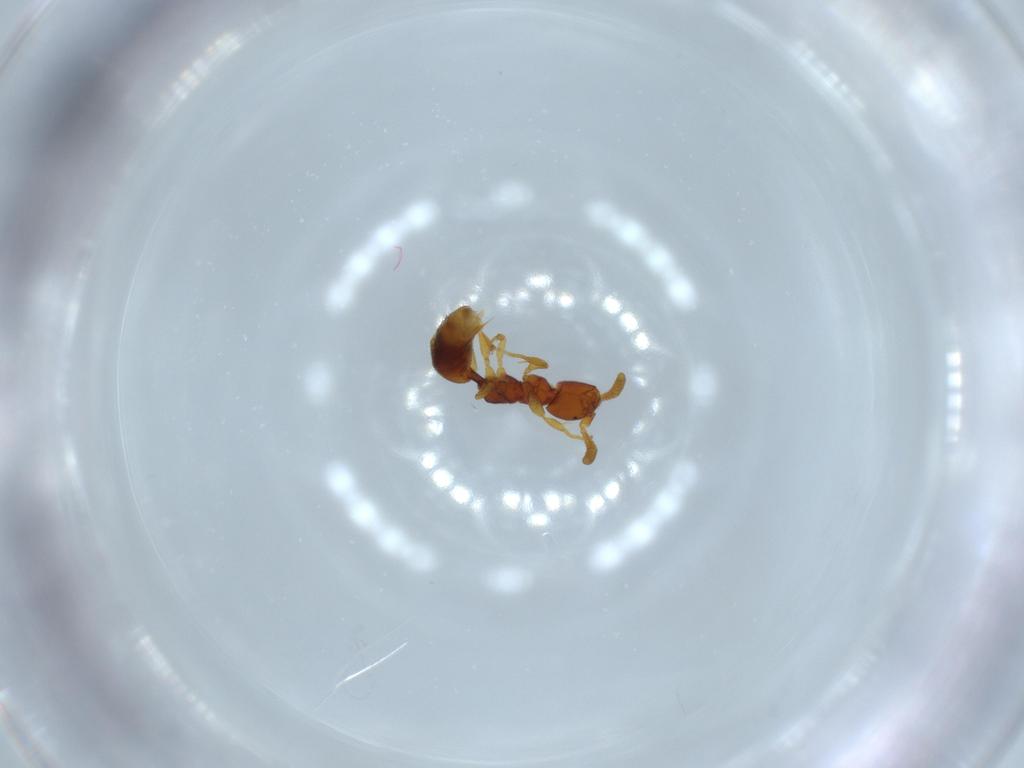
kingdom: Animalia
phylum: Arthropoda
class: Insecta
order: Hymenoptera
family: Bethylidae
